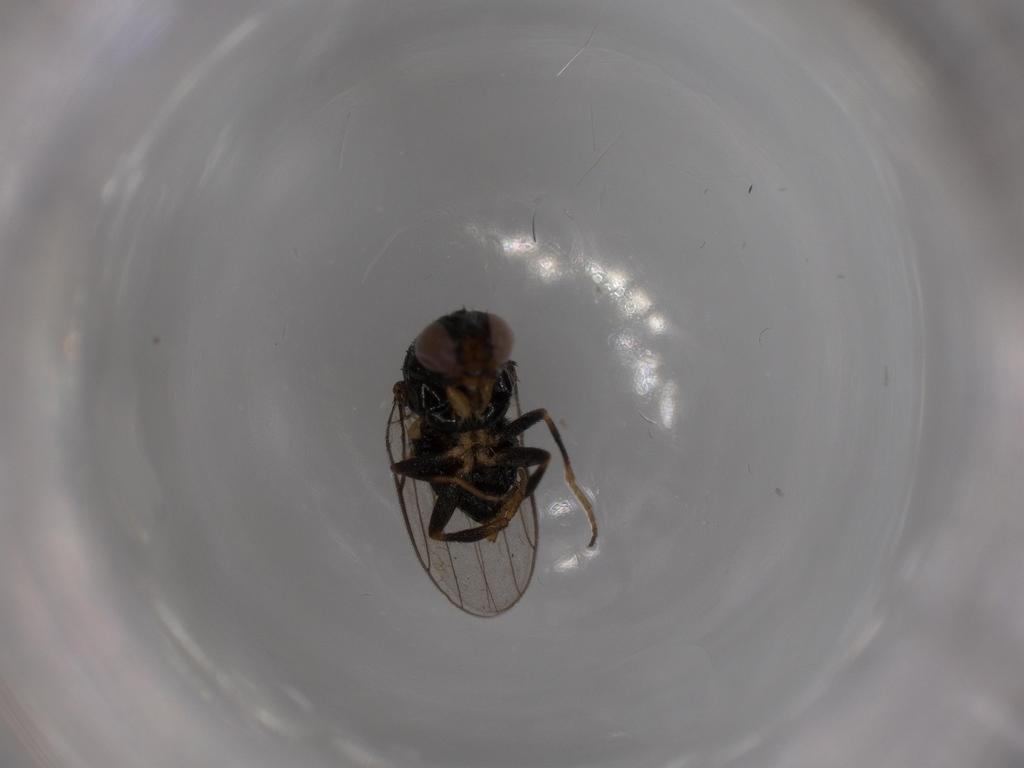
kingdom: Animalia
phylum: Arthropoda
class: Insecta
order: Diptera
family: Chloropidae
